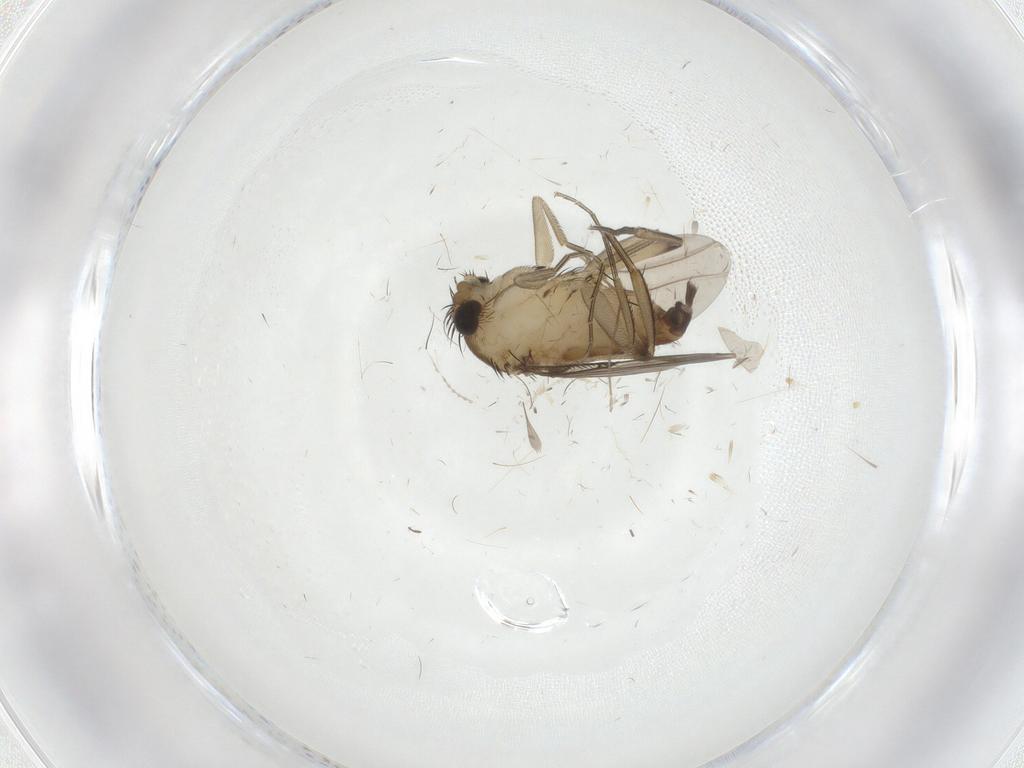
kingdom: Animalia
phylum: Arthropoda
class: Insecta
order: Diptera
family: Phoridae
